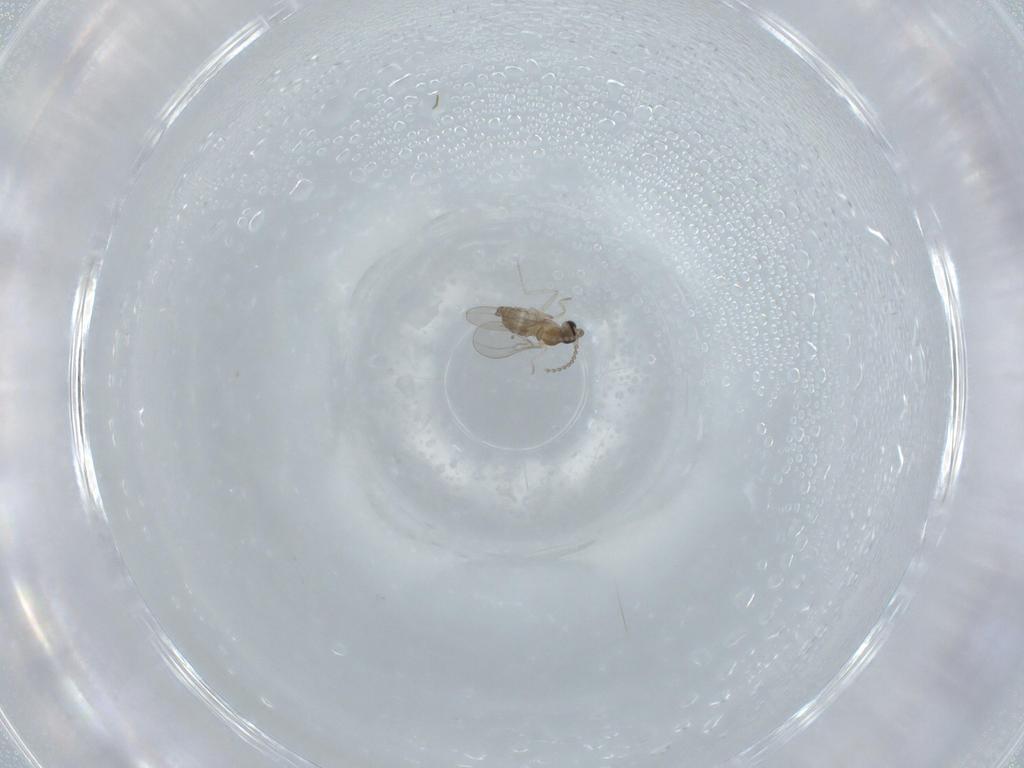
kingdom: Animalia
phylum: Arthropoda
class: Insecta
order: Diptera
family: Cecidomyiidae
